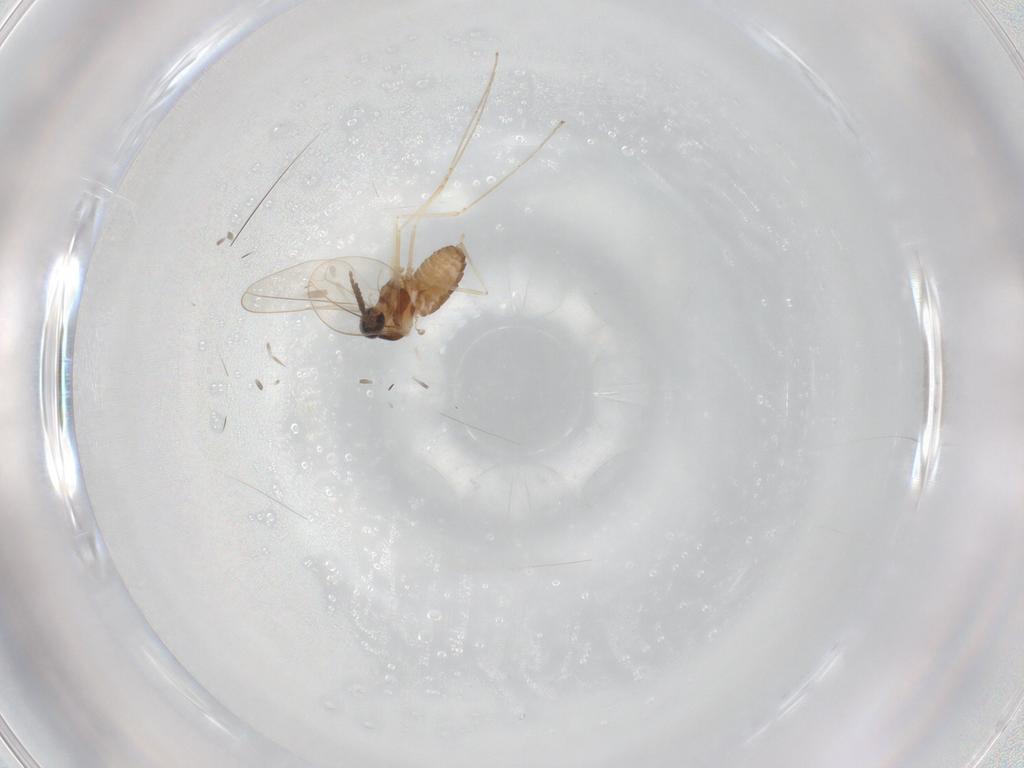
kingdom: Animalia
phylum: Arthropoda
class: Insecta
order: Diptera
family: Cecidomyiidae
